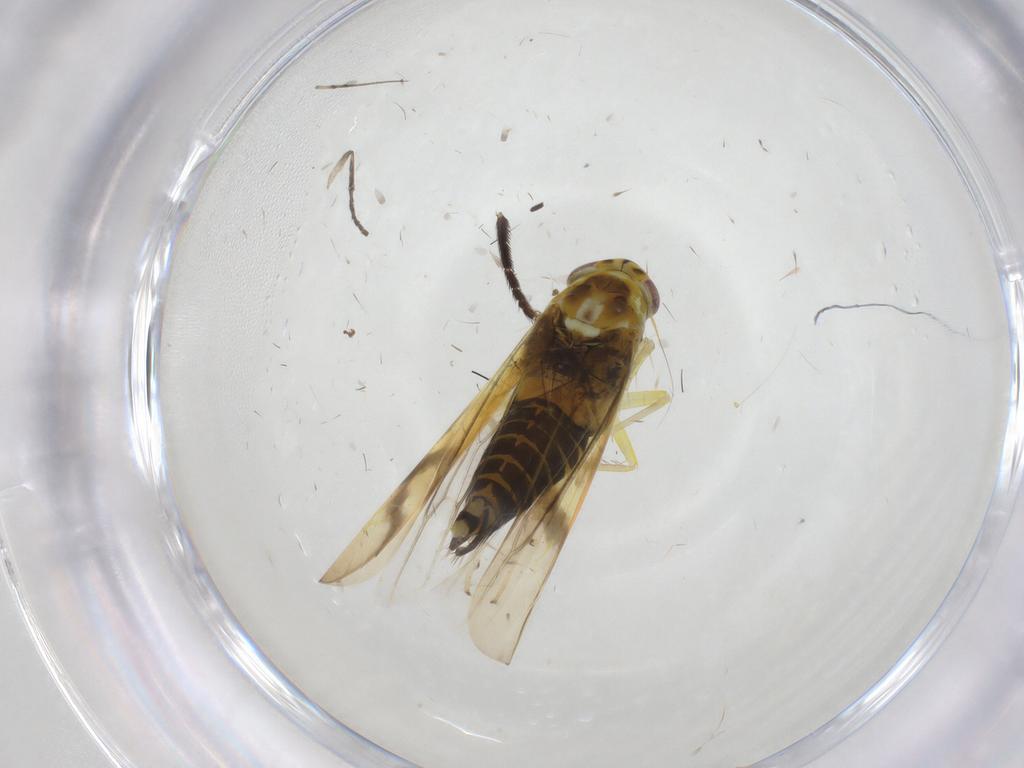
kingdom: Animalia
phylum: Arthropoda
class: Insecta
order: Hemiptera
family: Cicadellidae
